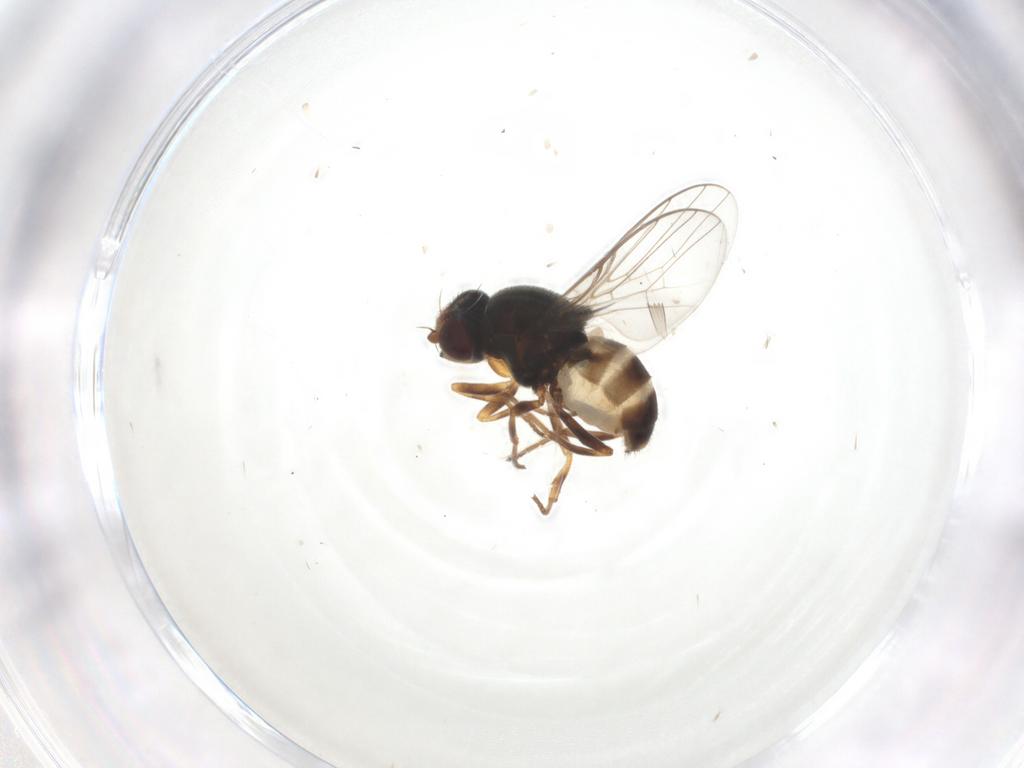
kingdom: Animalia
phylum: Arthropoda
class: Insecta
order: Diptera
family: Chloropidae
